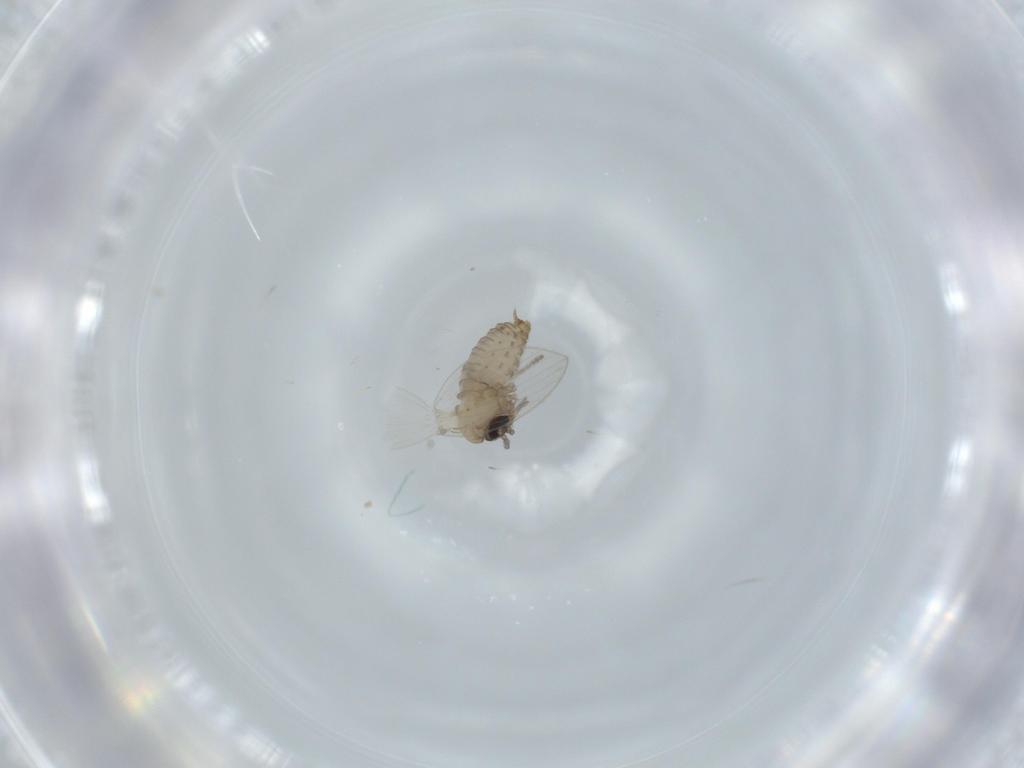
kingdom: Animalia
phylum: Arthropoda
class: Insecta
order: Diptera
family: Psychodidae
